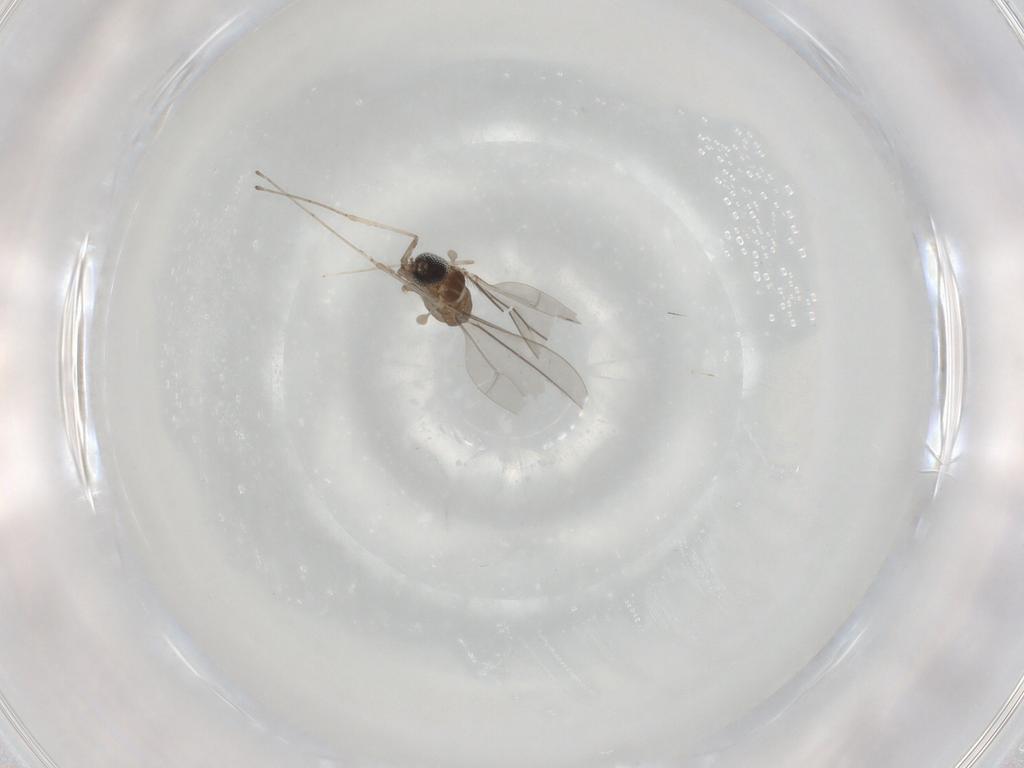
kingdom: Animalia
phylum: Arthropoda
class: Insecta
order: Diptera
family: Cecidomyiidae
